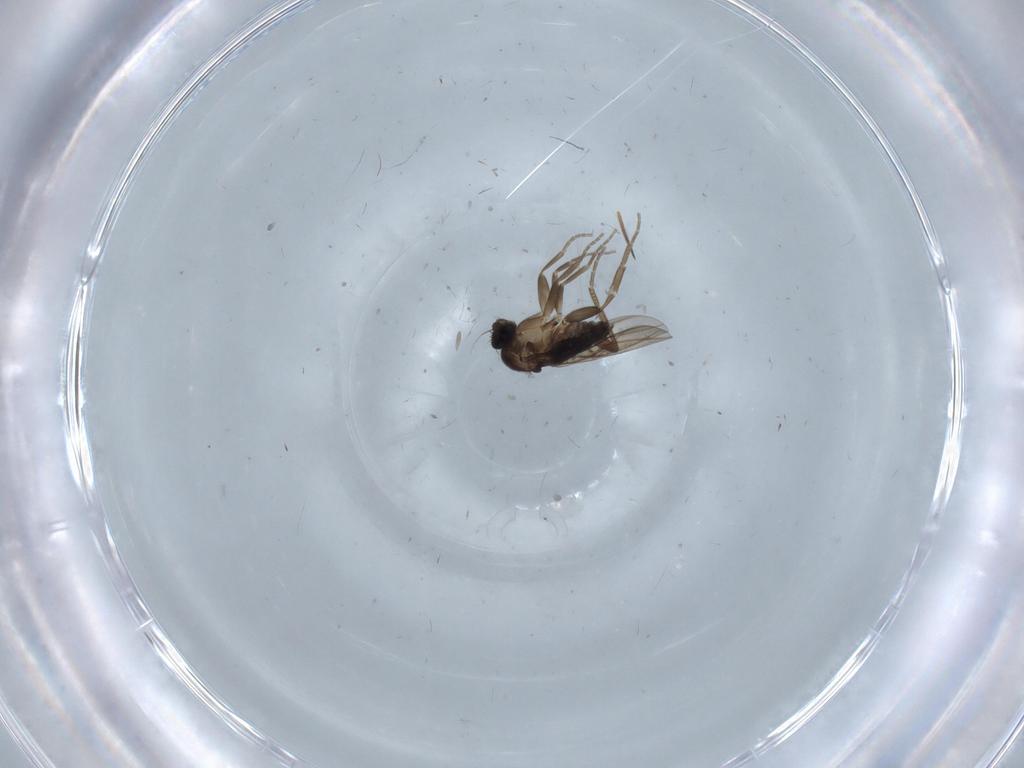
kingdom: Animalia
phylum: Arthropoda
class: Insecta
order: Diptera
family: Phoridae
